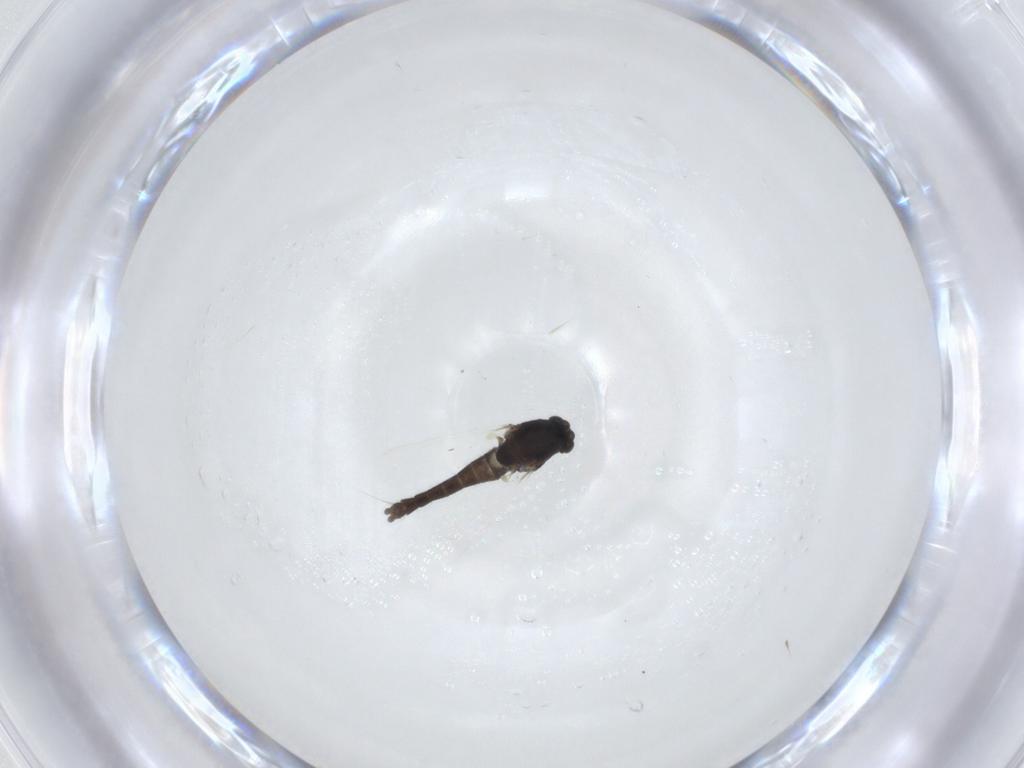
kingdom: Animalia
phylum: Arthropoda
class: Insecta
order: Diptera
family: Chironomidae
